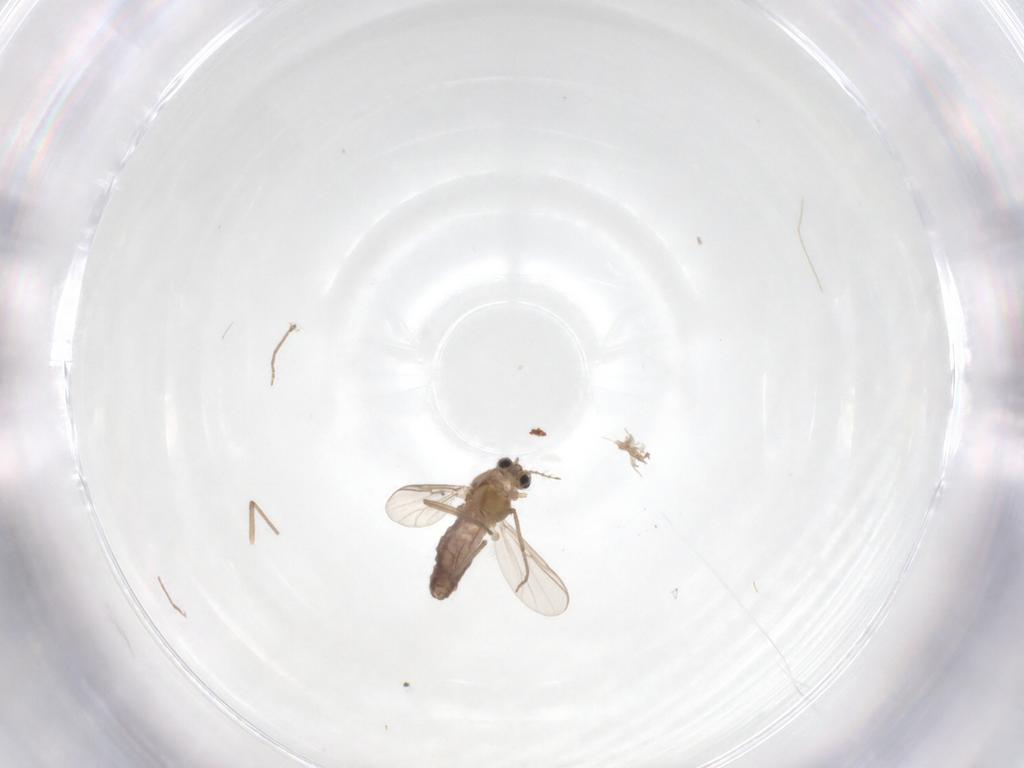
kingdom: Animalia
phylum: Arthropoda
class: Insecta
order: Diptera
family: Chironomidae
